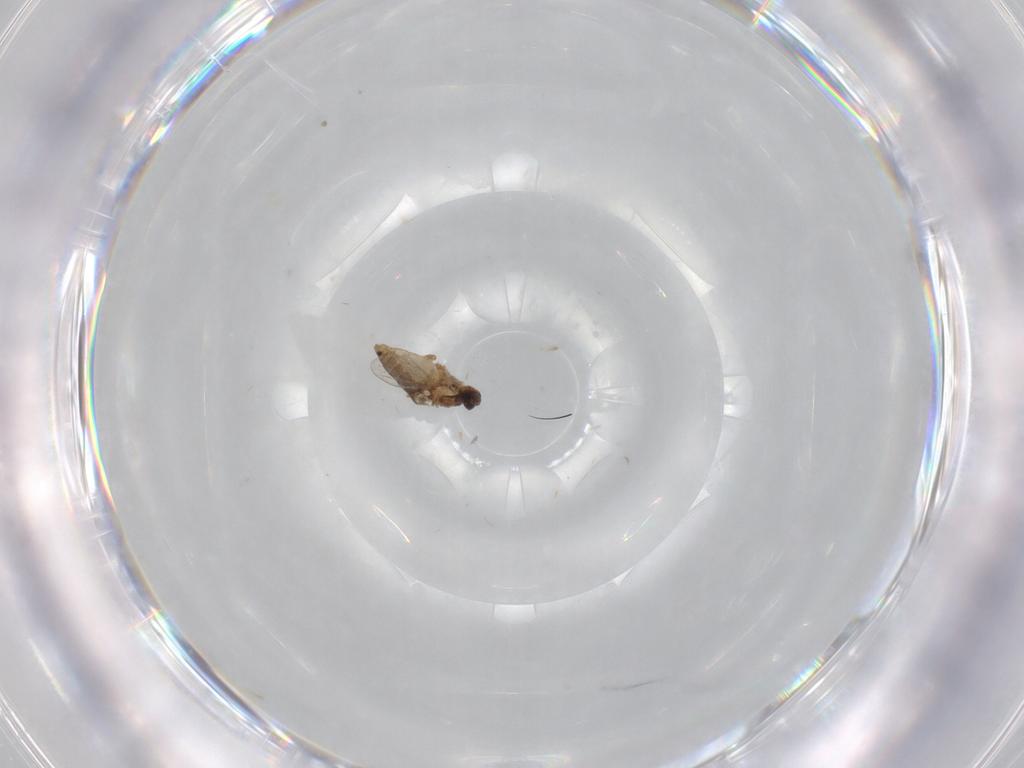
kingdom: Animalia
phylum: Arthropoda
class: Insecta
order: Diptera
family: Ceratopogonidae
